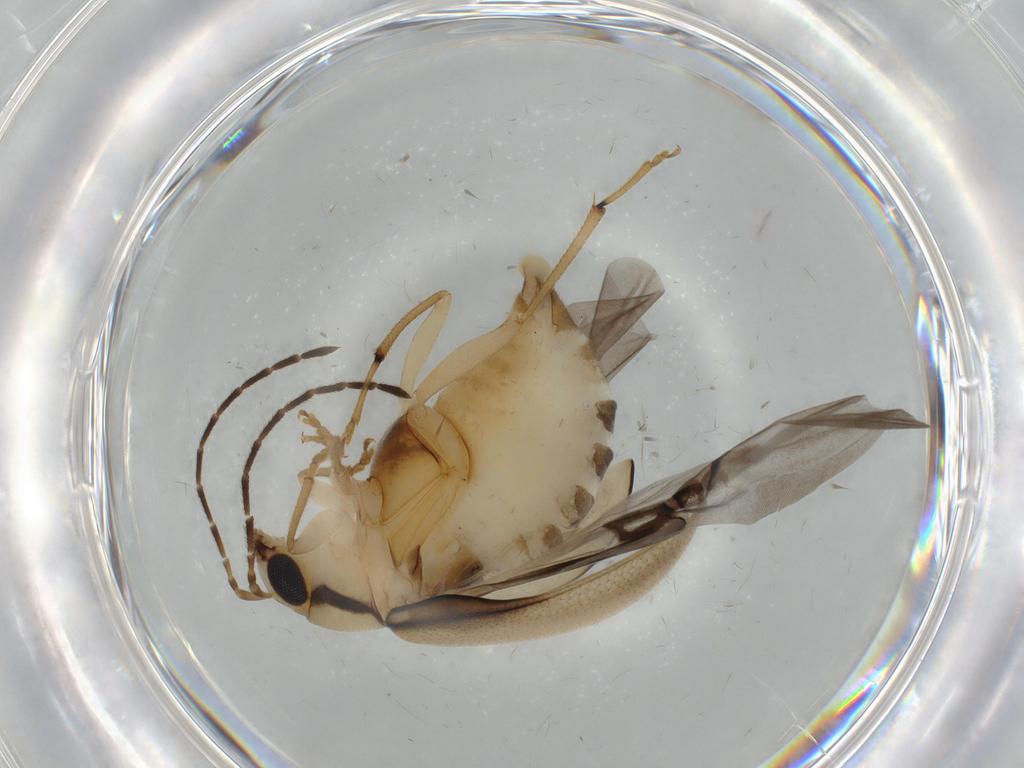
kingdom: Animalia
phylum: Arthropoda
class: Insecta
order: Coleoptera
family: Chrysomelidae
